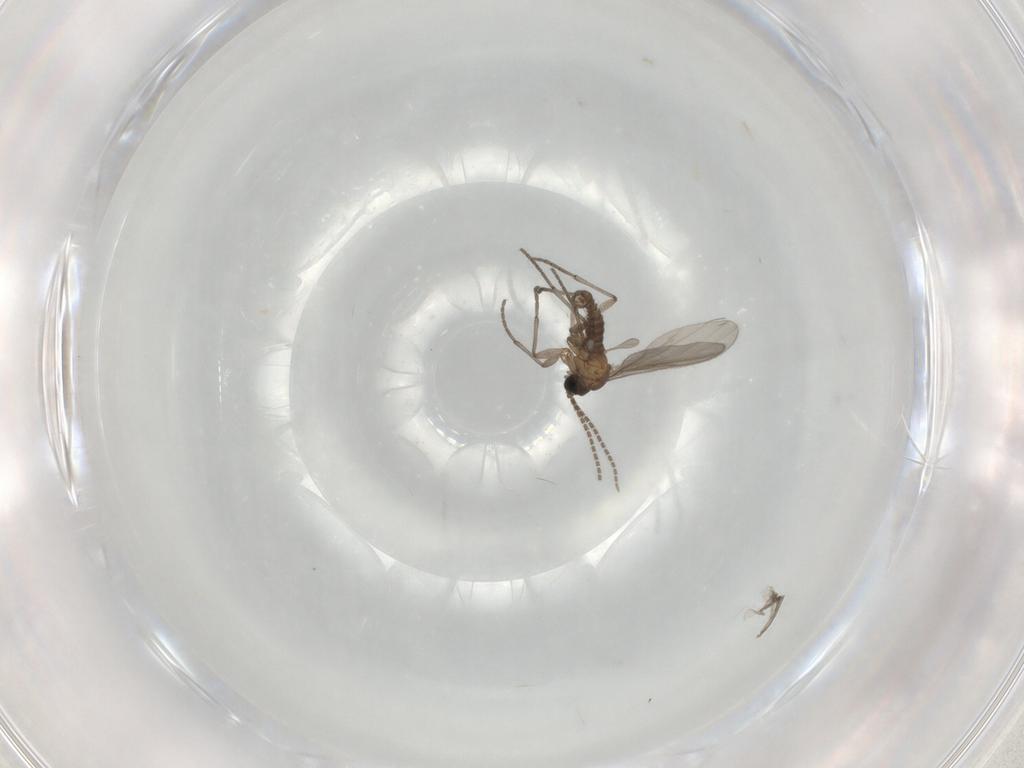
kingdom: Animalia
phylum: Arthropoda
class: Insecta
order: Diptera
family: Sciaridae
